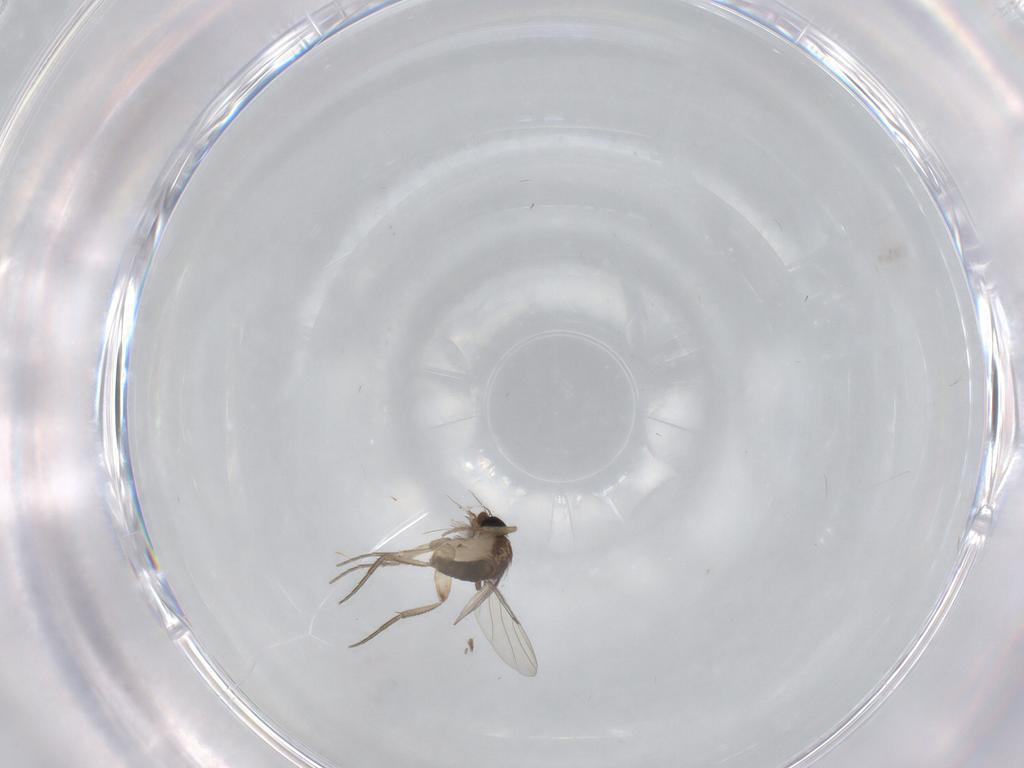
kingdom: Animalia
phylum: Arthropoda
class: Insecta
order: Diptera
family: Phoridae
